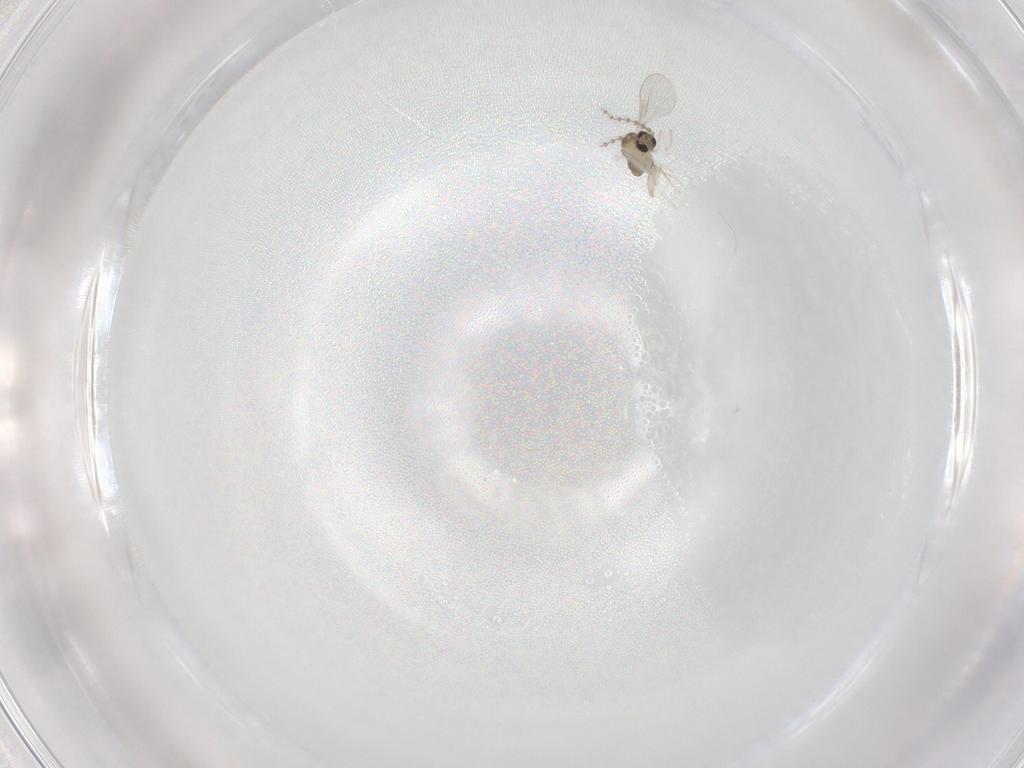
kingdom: Animalia
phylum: Arthropoda
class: Insecta
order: Diptera
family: Cecidomyiidae
